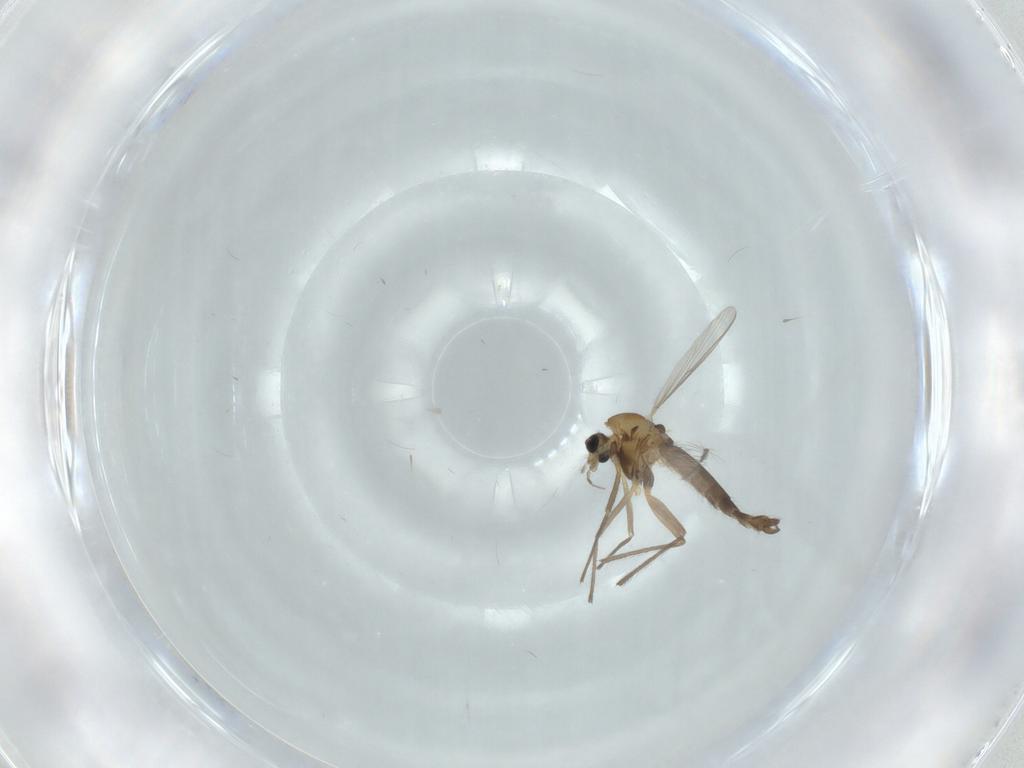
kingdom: Animalia
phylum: Arthropoda
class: Insecta
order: Diptera
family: Chironomidae
